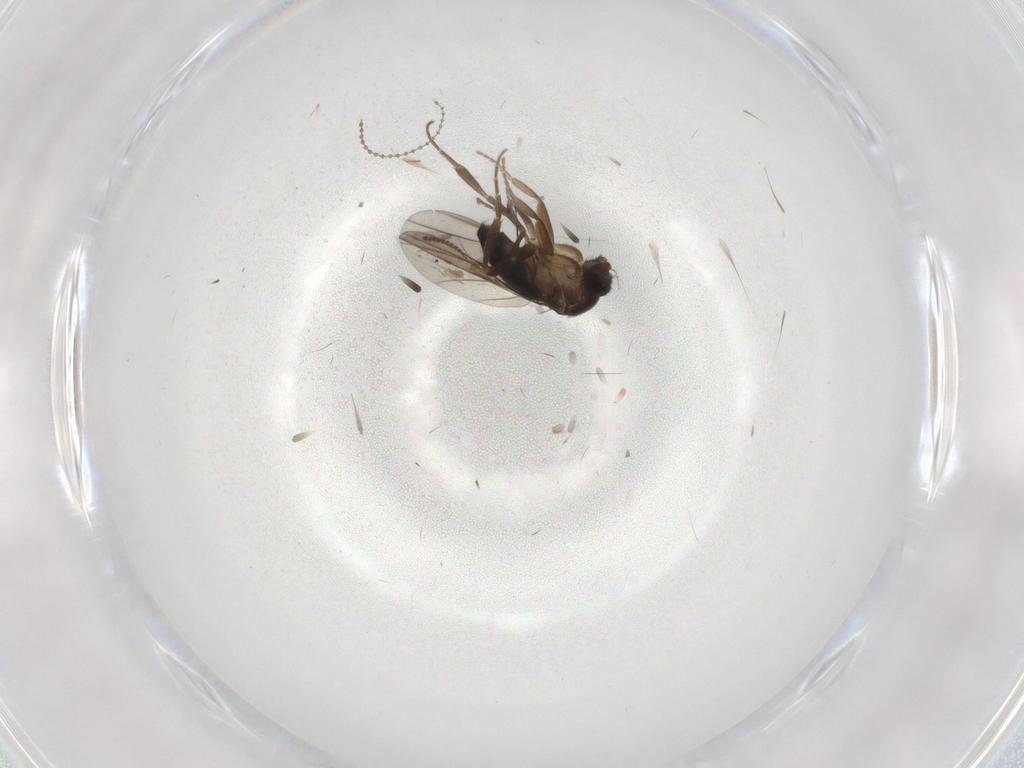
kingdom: Animalia
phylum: Arthropoda
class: Insecta
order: Diptera
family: Phoridae
